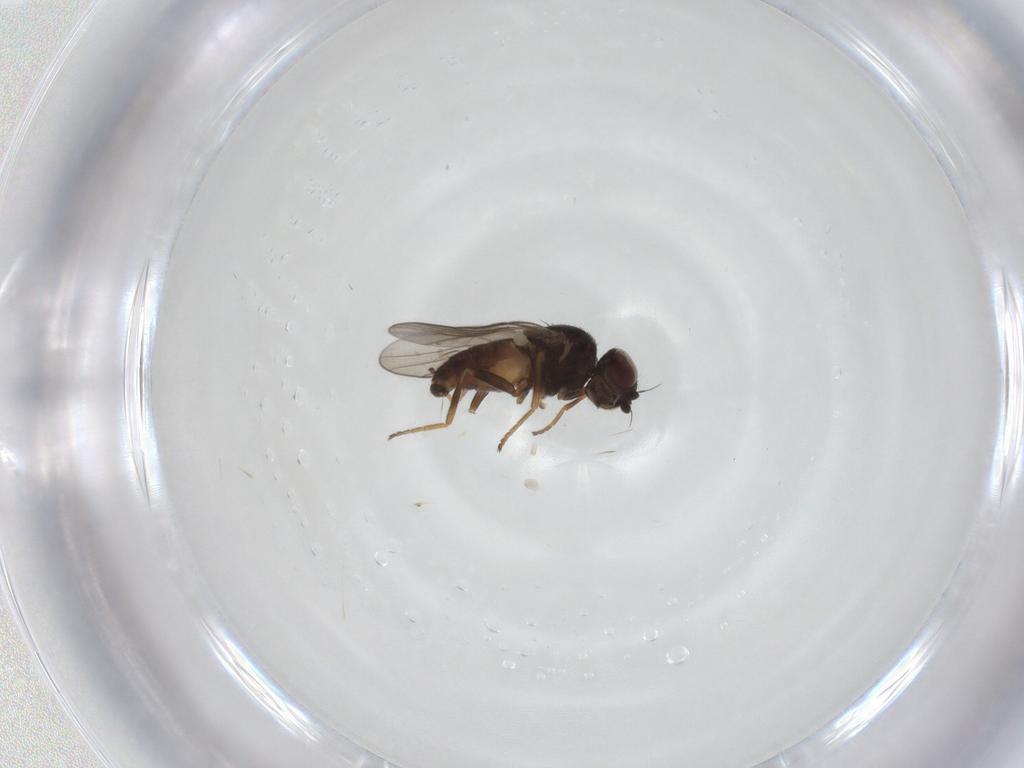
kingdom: Animalia
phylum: Arthropoda
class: Insecta
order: Diptera
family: Chloropidae
